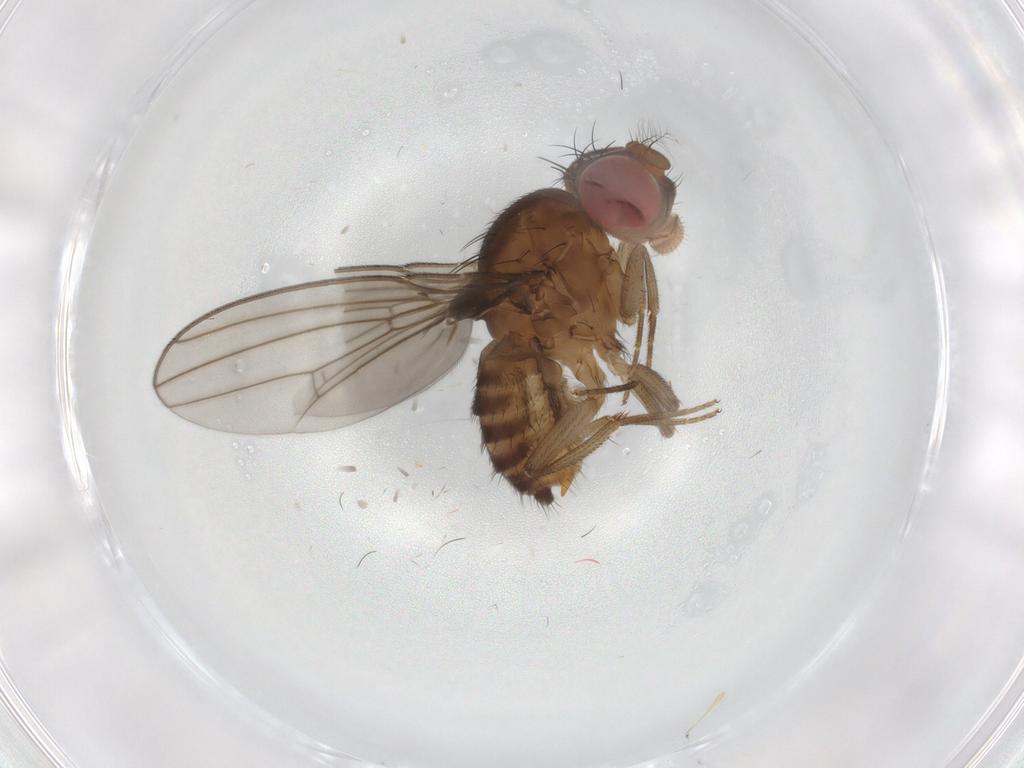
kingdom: Animalia
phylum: Arthropoda
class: Insecta
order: Diptera
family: Drosophilidae
